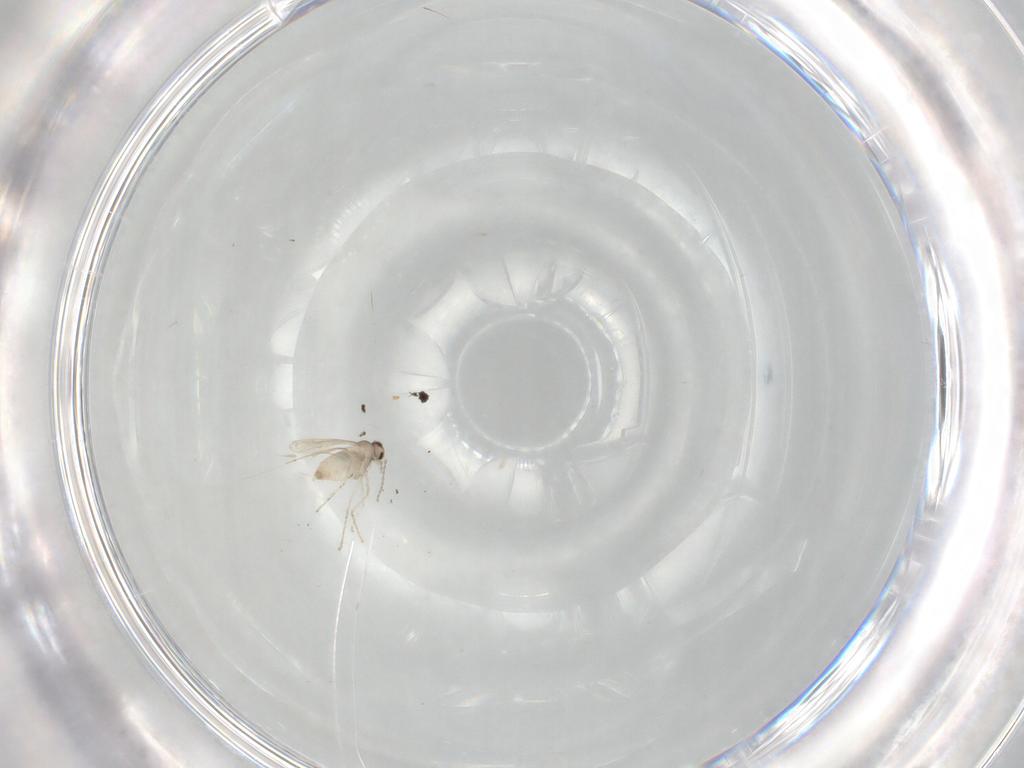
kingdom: Animalia
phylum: Arthropoda
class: Insecta
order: Diptera
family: Cecidomyiidae
